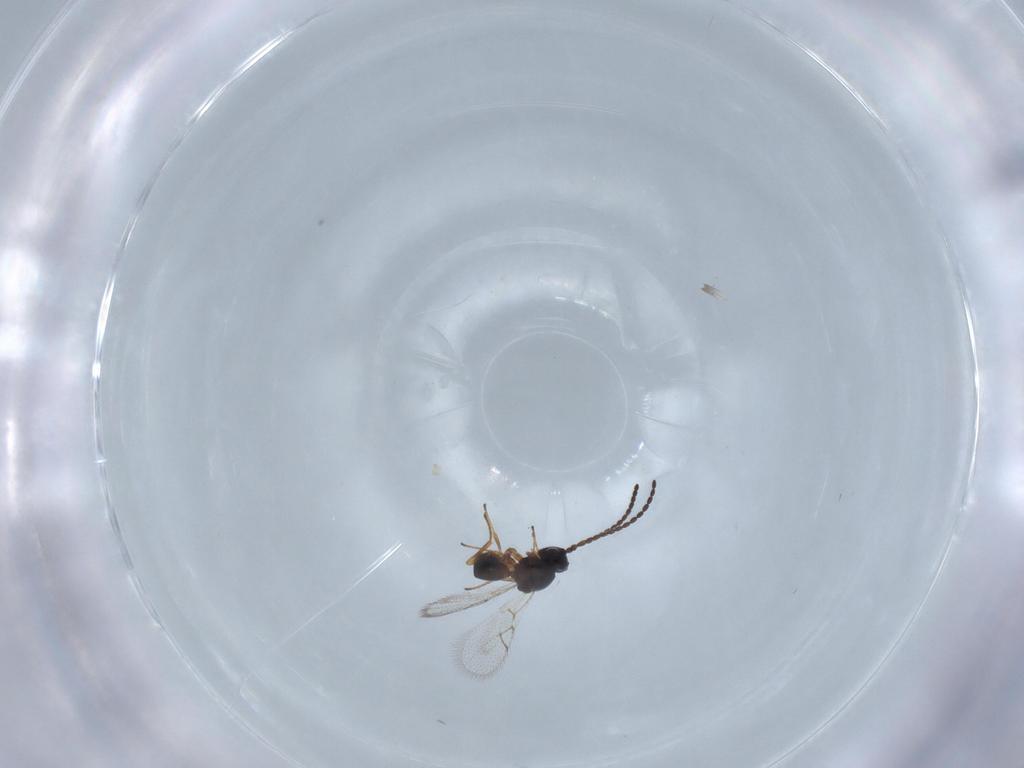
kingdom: Animalia
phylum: Arthropoda
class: Insecta
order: Hymenoptera
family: Figitidae
